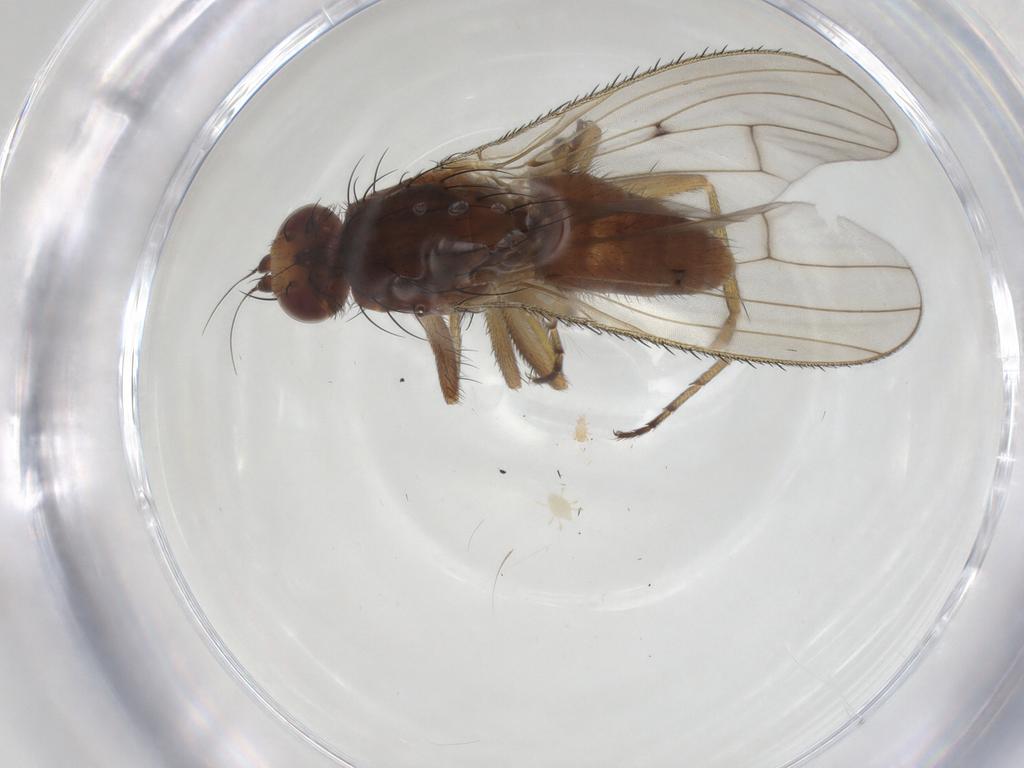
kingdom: Animalia
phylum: Arthropoda
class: Insecta
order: Diptera
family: Heleomyzidae
